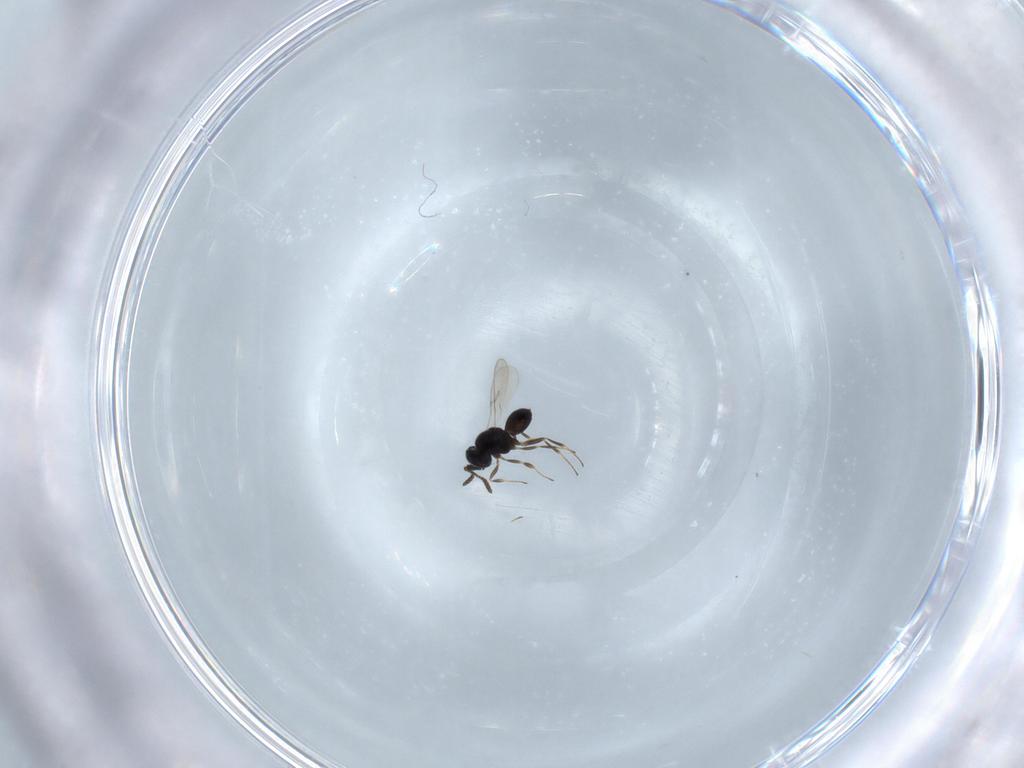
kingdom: Animalia
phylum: Arthropoda
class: Insecta
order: Hymenoptera
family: Scelionidae
